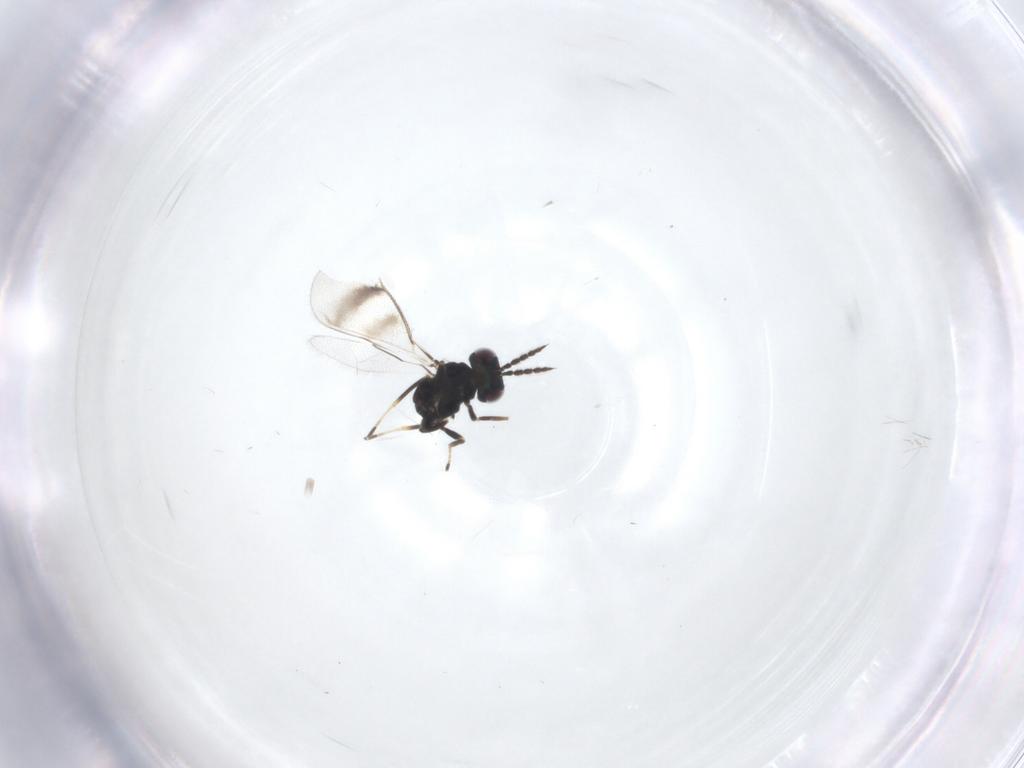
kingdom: Animalia
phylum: Arthropoda
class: Insecta
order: Hymenoptera
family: Eulophidae
